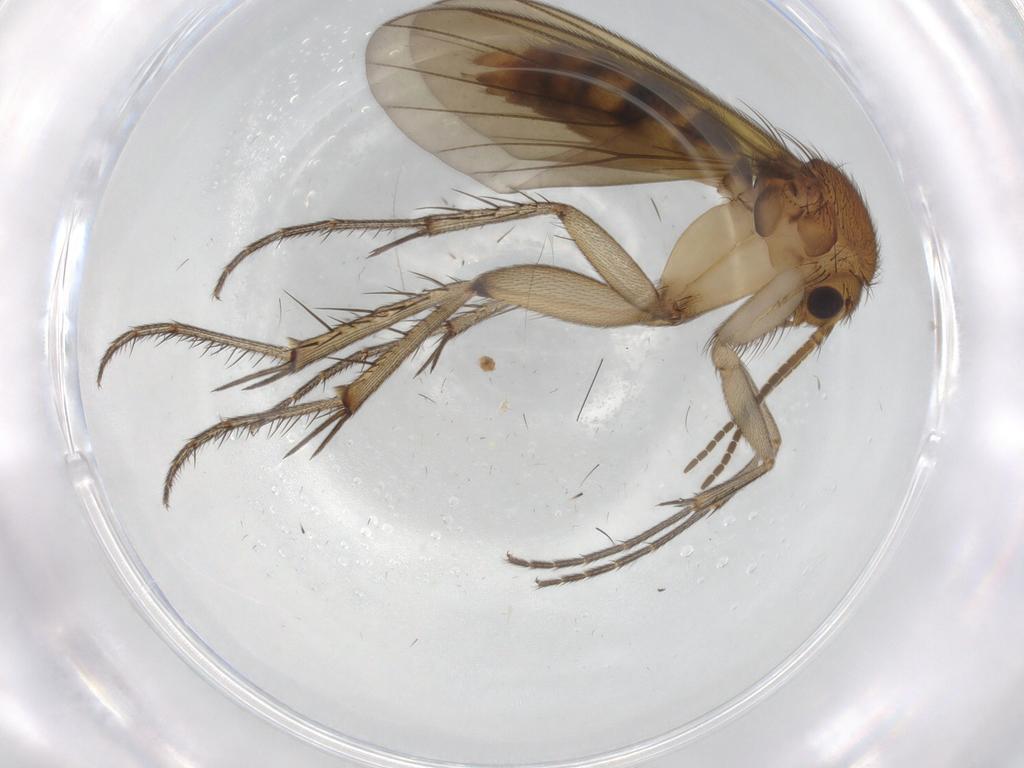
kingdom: Animalia
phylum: Arthropoda
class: Insecta
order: Diptera
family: Mycetophilidae
